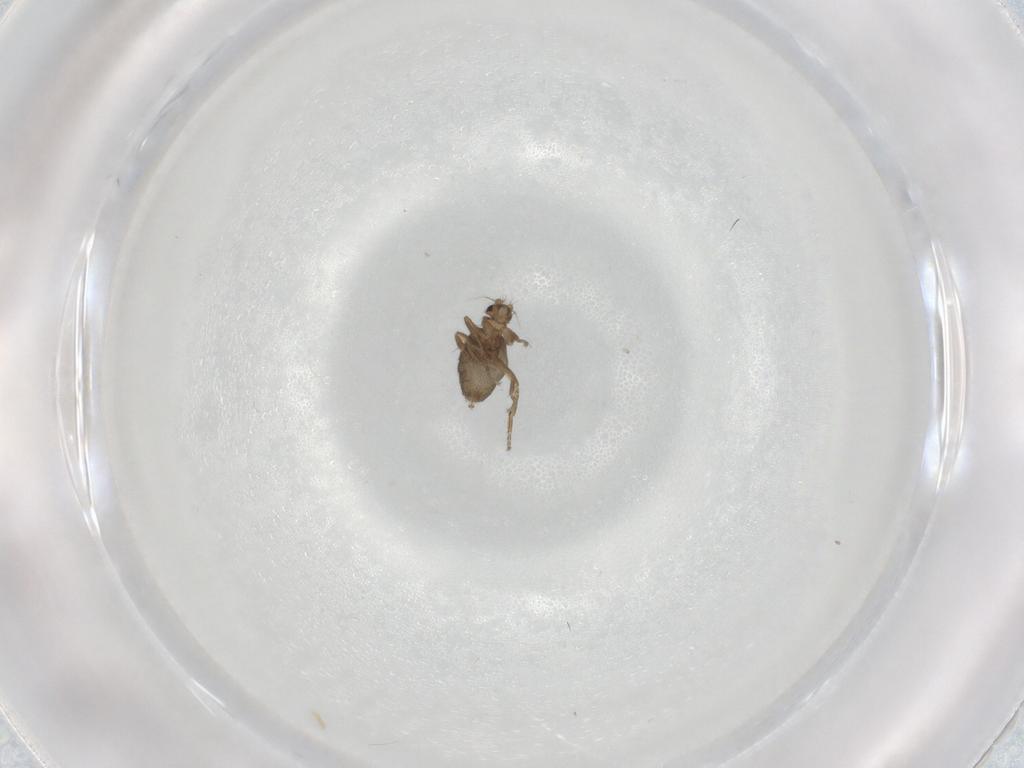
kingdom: Animalia
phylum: Arthropoda
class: Insecta
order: Diptera
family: Phoridae
